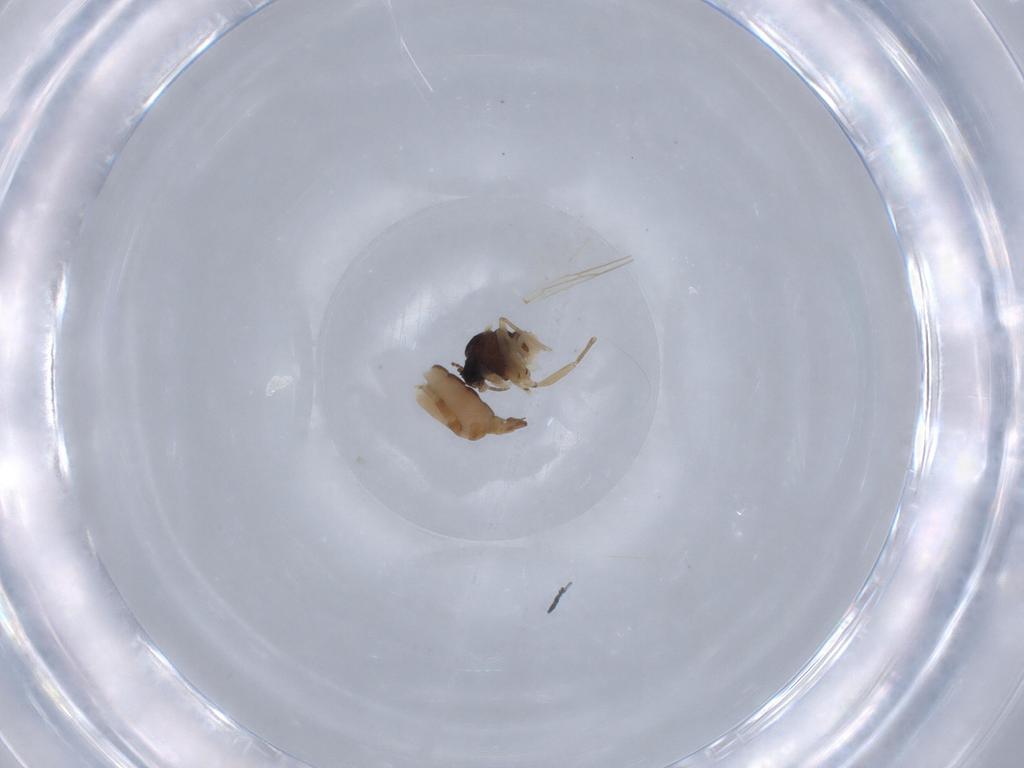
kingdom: Animalia
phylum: Arthropoda
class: Insecta
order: Diptera
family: Sciaridae
